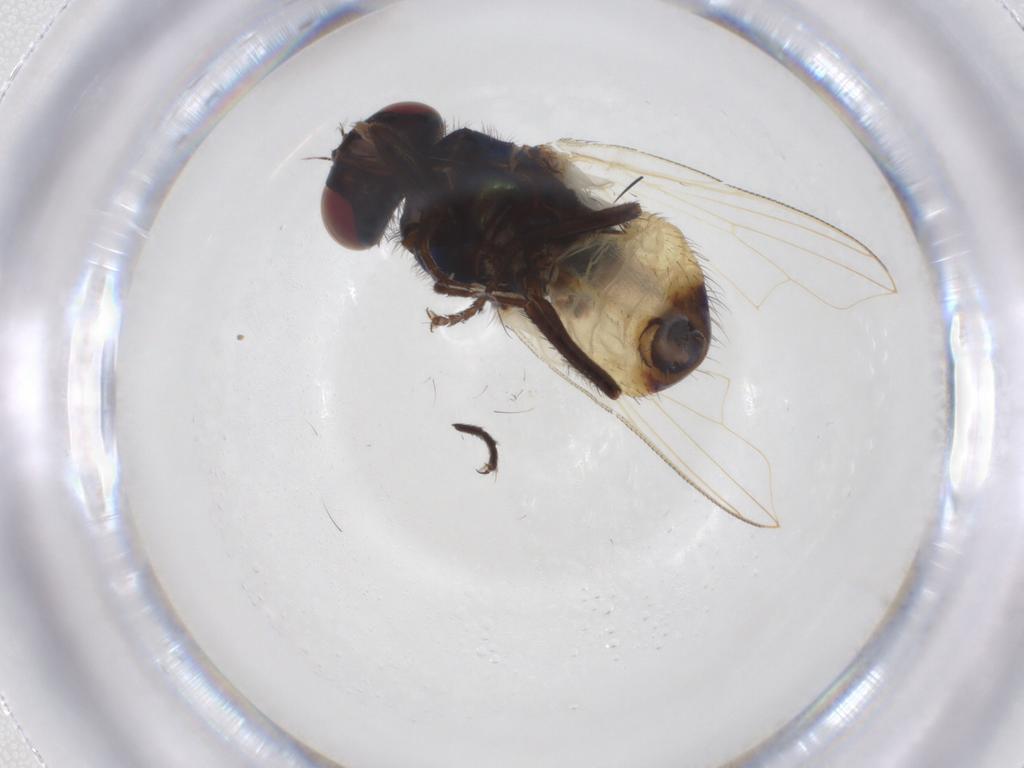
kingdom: Animalia
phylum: Arthropoda
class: Insecta
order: Diptera
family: Muscidae
